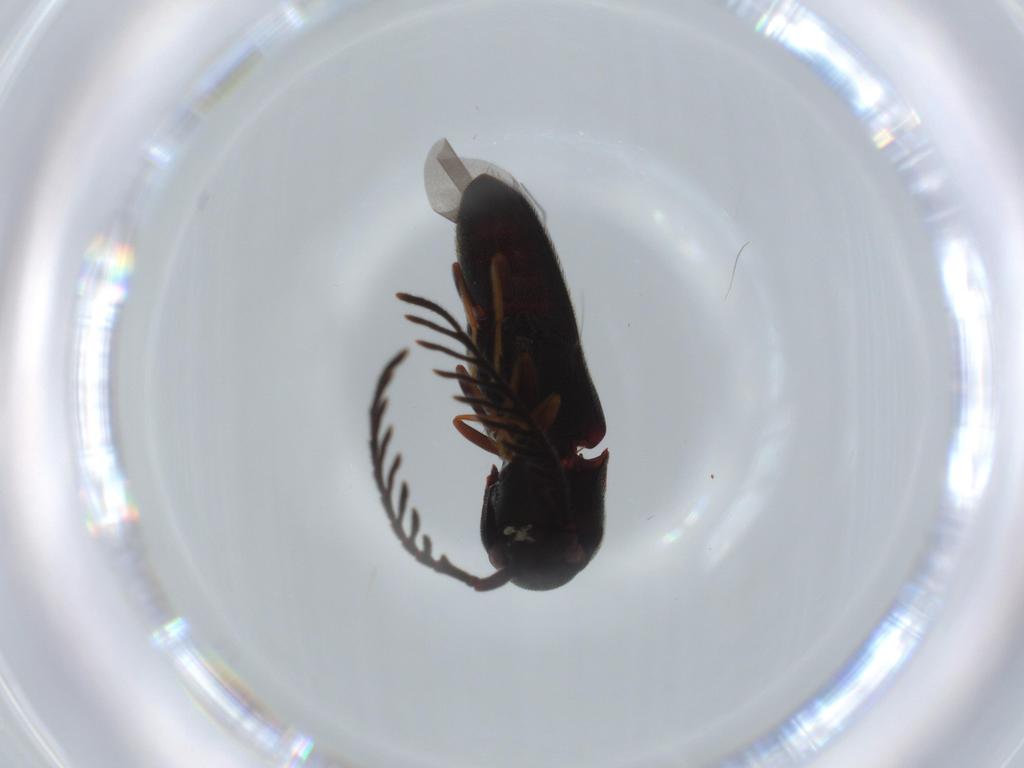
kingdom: Animalia
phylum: Arthropoda
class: Insecta
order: Coleoptera
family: Eucnemidae
